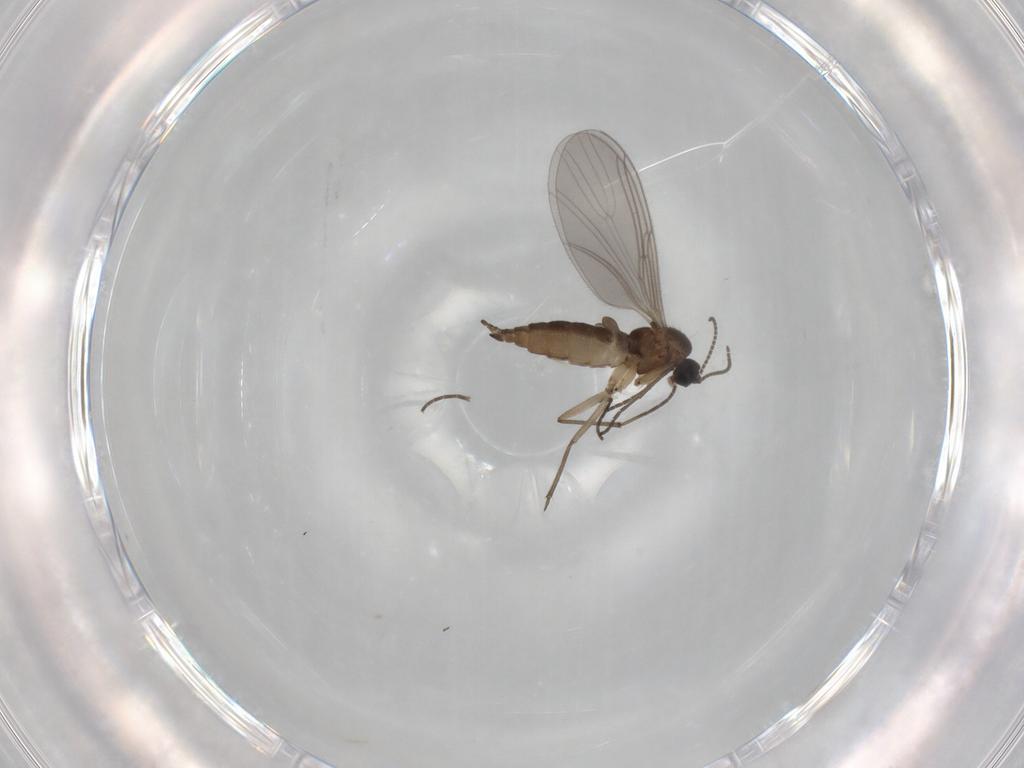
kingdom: Animalia
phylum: Arthropoda
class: Insecta
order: Diptera
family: Sciaridae
